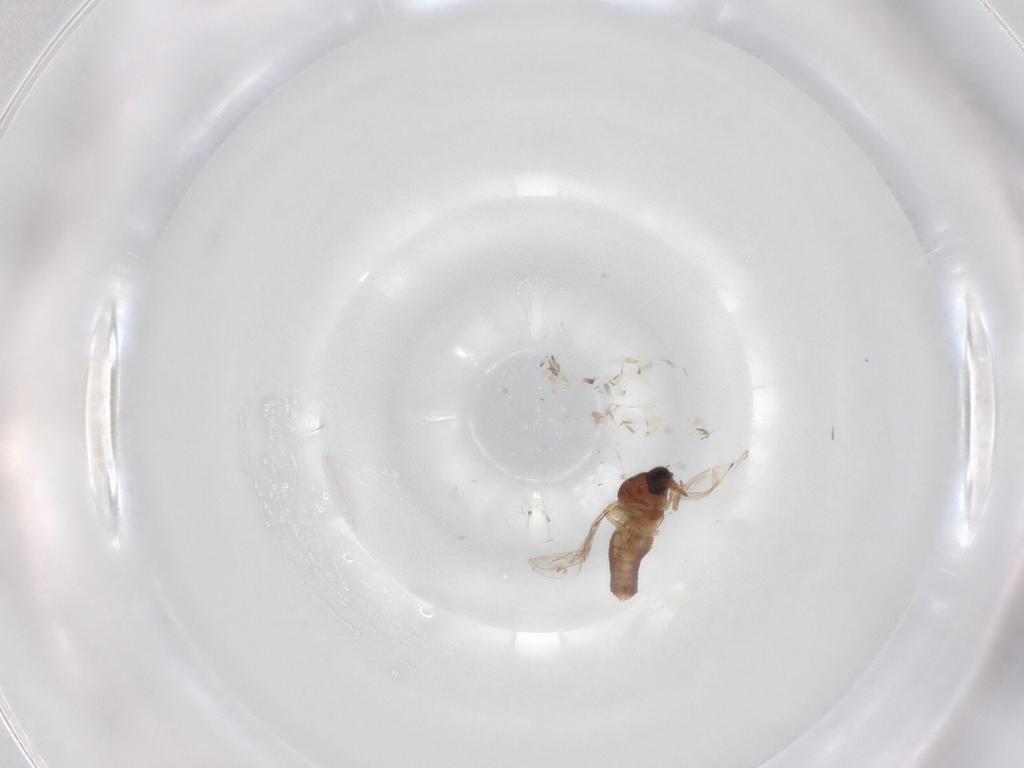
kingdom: Animalia
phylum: Arthropoda
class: Insecta
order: Diptera
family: Ceratopogonidae
